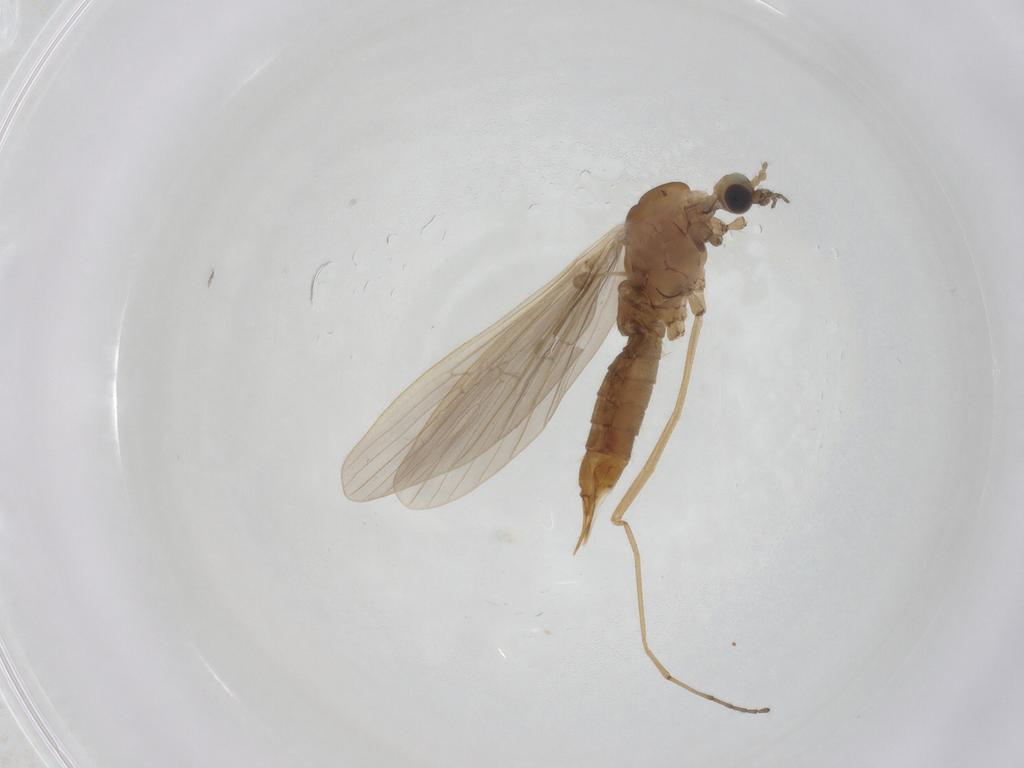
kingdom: Animalia
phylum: Arthropoda
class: Insecta
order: Diptera
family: Limoniidae
